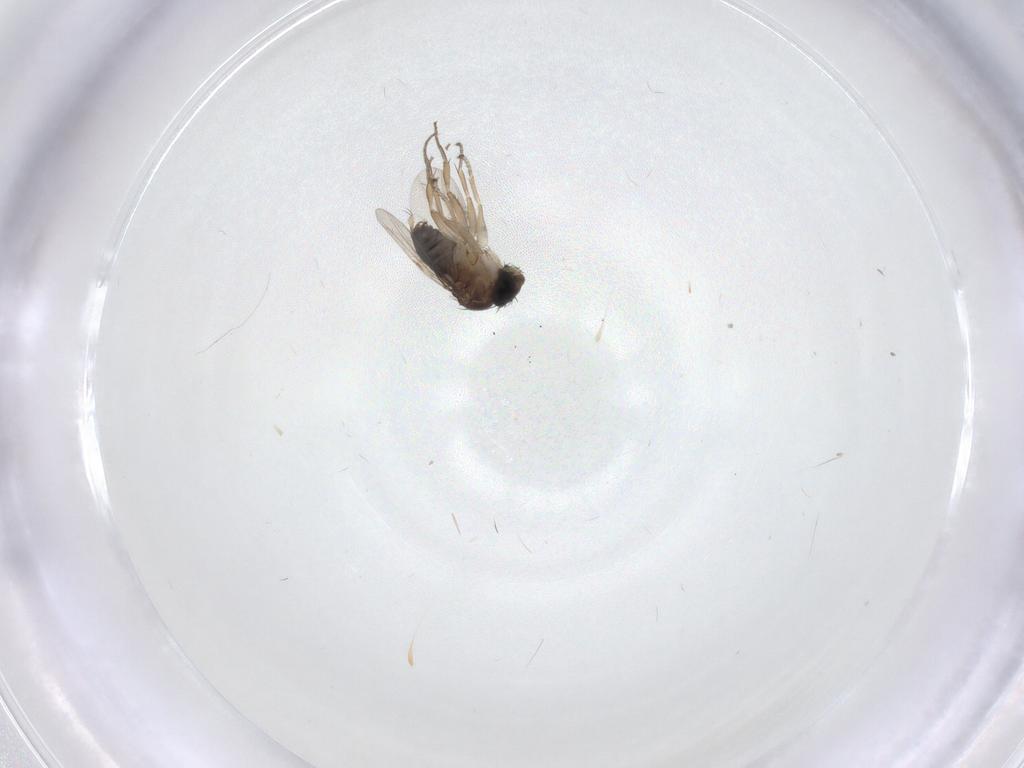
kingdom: Animalia
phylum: Arthropoda
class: Insecta
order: Diptera
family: Phoridae
